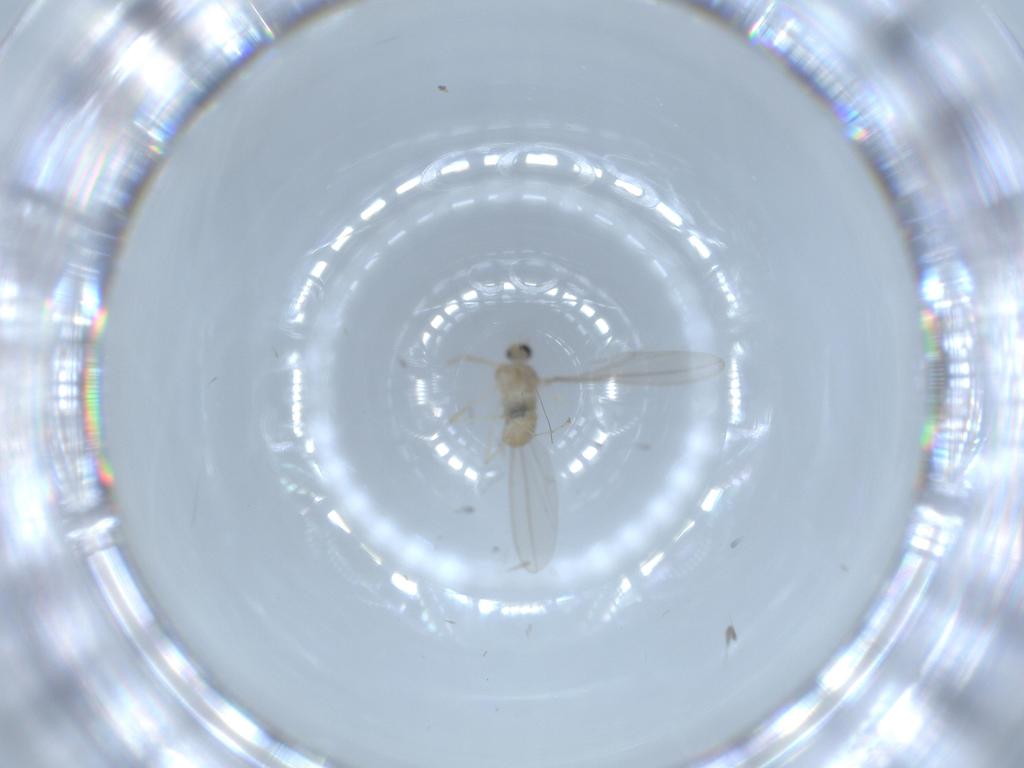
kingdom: Animalia
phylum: Arthropoda
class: Insecta
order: Diptera
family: Cecidomyiidae
